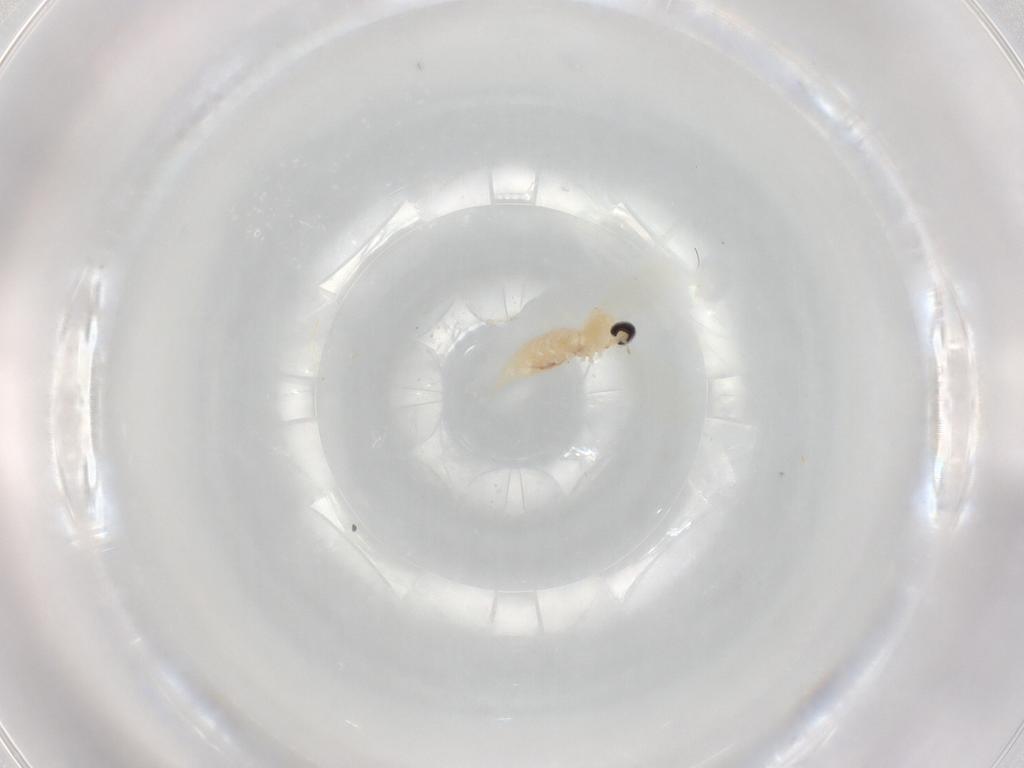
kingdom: Animalia
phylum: Arthropoda
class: Insecta
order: Diptera
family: Cecidomyiidae
